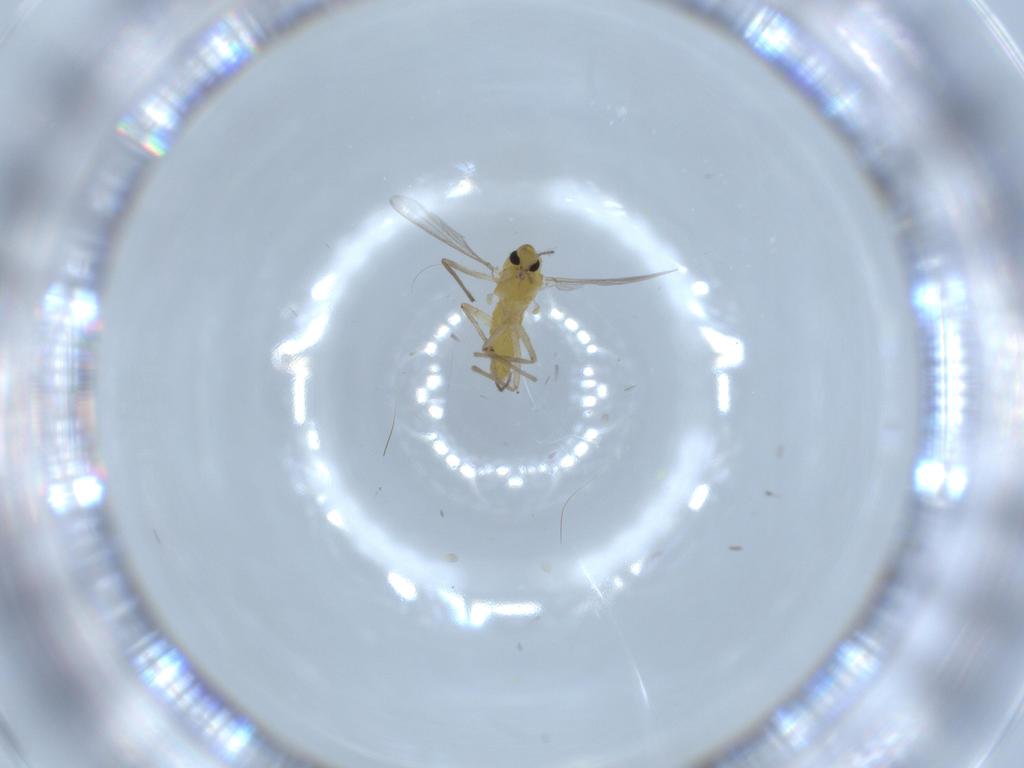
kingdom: Animalia
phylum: Arthropoda
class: Insecta
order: Diptera
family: Chironomidae
